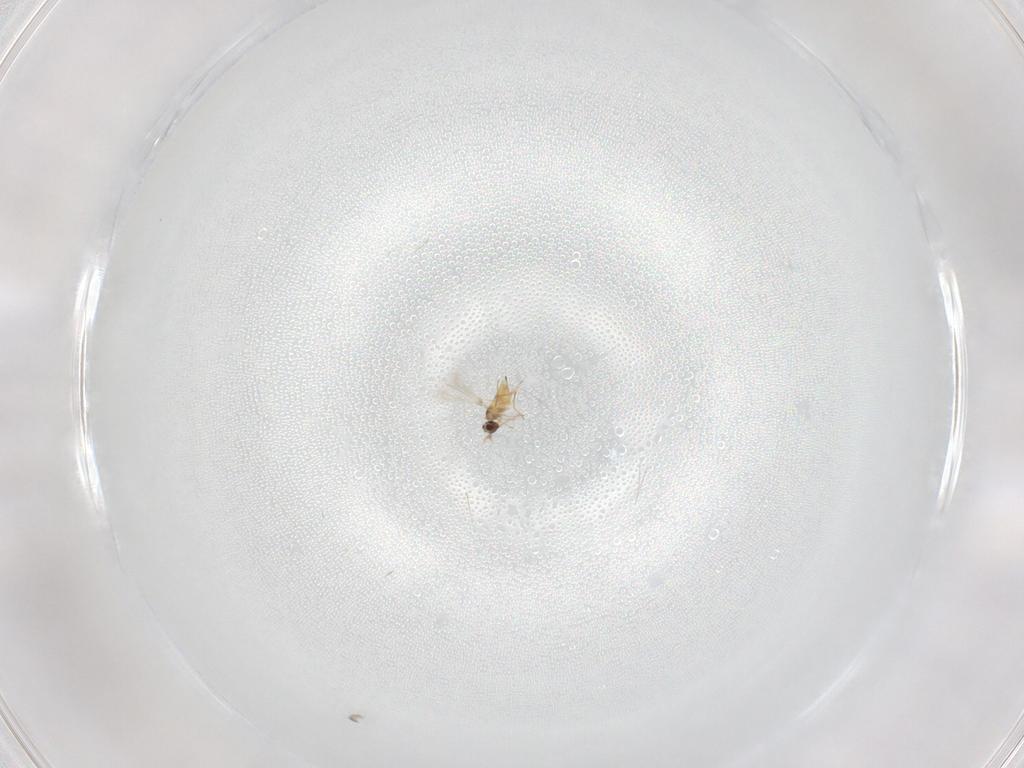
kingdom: Animalia
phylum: Arthropoda
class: Insecta
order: Hymenoptera
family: Mymaridae
